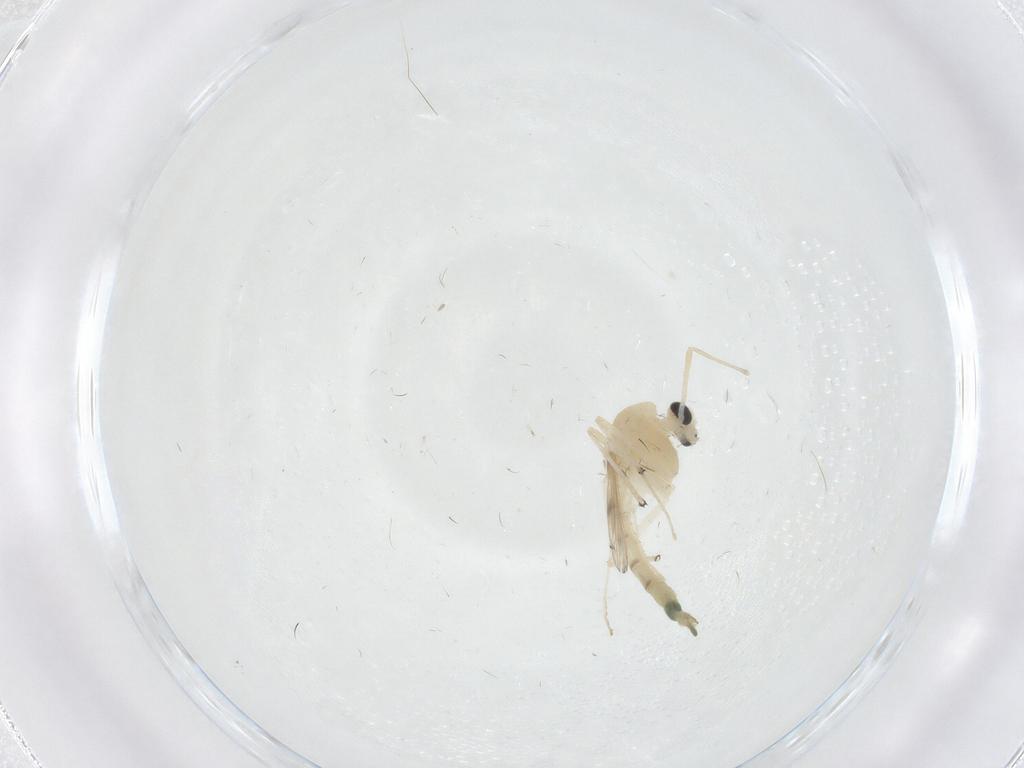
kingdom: Animalia
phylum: Arthropoda
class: Insecta
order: Diptera
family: Chironomidae
